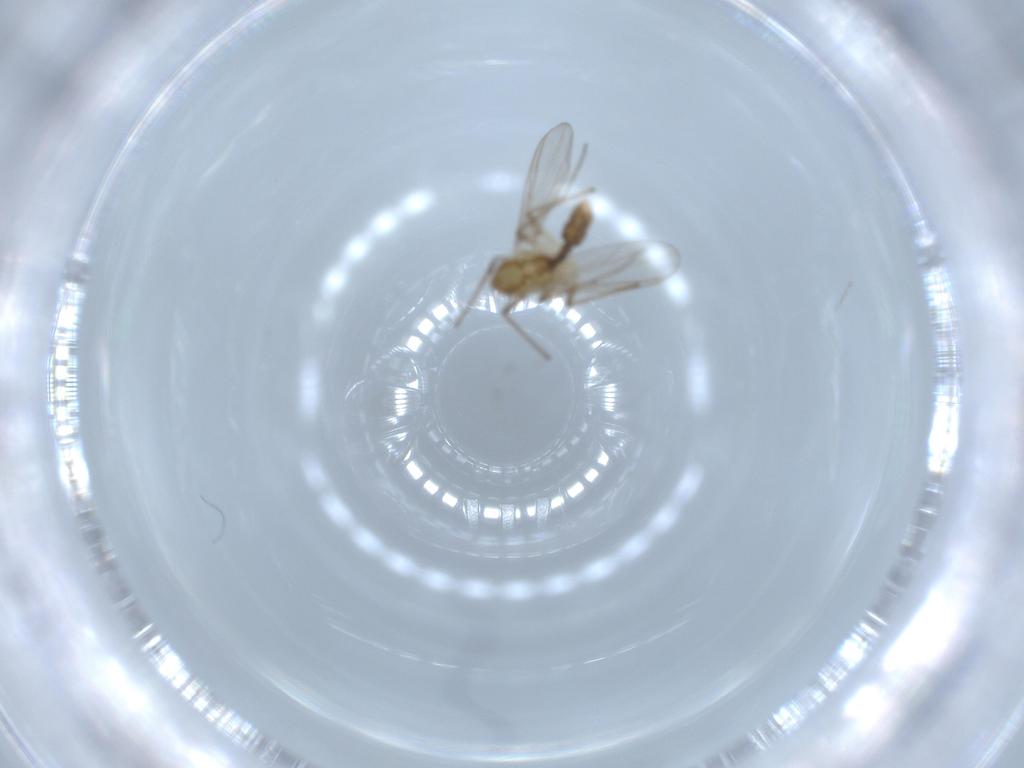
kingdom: Animalia
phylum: Arthropoda
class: Insecta
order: Diptera
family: Chironomidae
